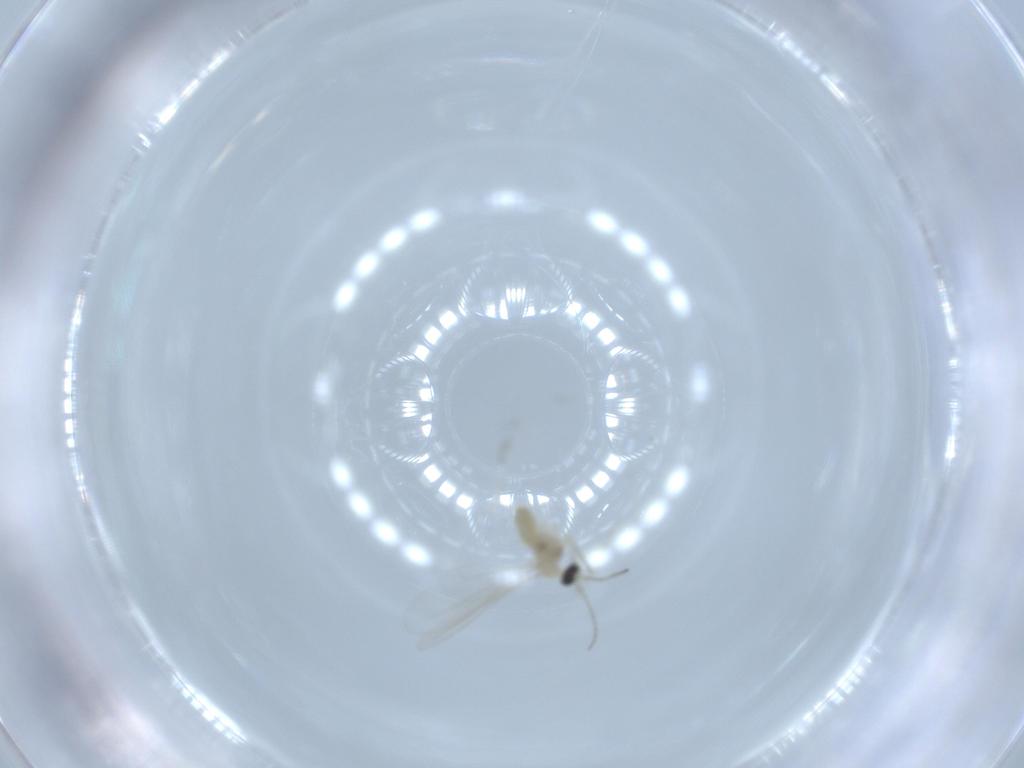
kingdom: Animalia
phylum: Arthropoda
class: Insecta
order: Diptera
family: Cecidomyiidae
